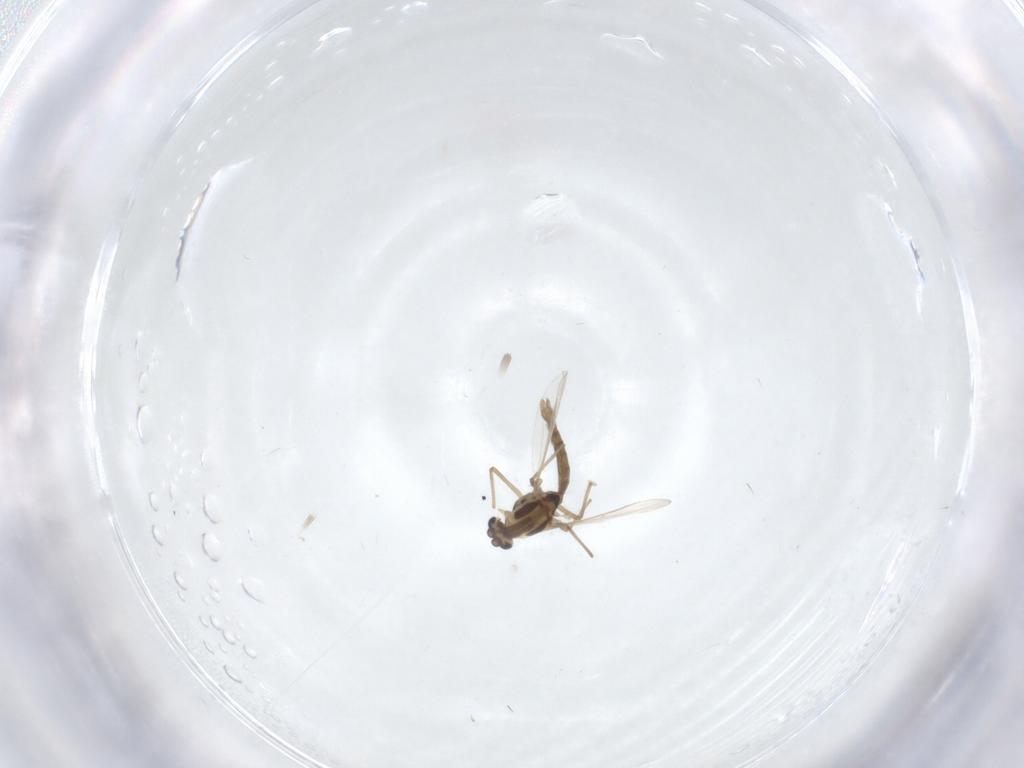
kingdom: Animalia
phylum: Arthropoda
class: Insecta
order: Diptera
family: Chironomidae
